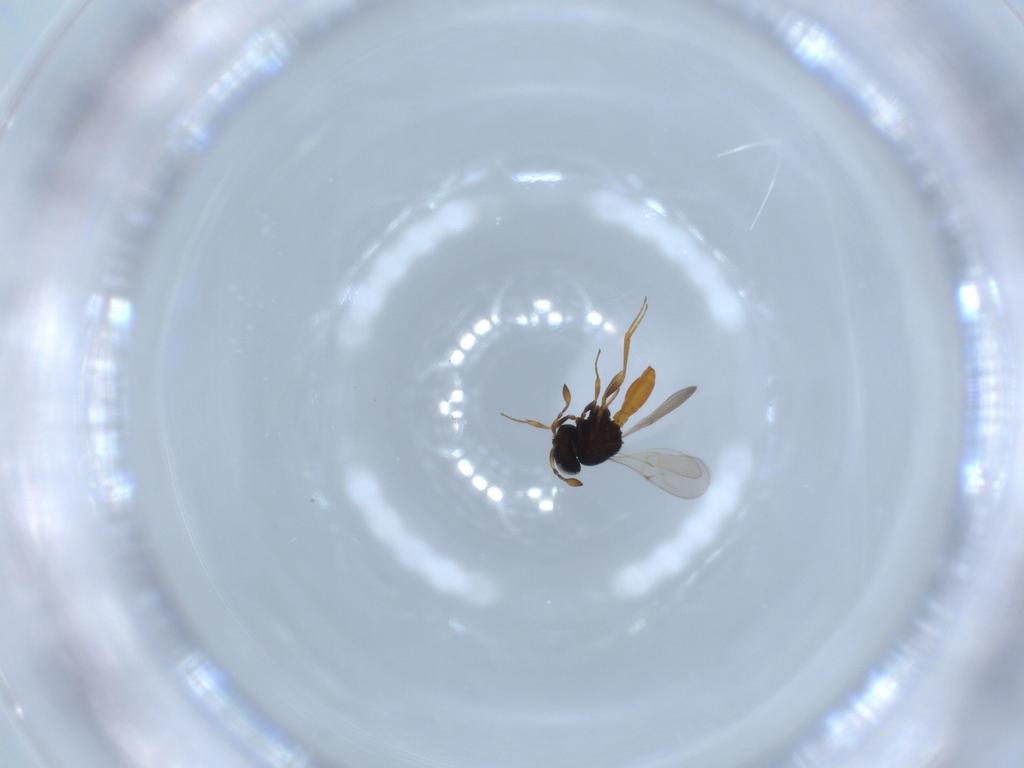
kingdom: Animalia
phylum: Arthropoda
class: Insecta
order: Hymenoptera
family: Scelionidae
